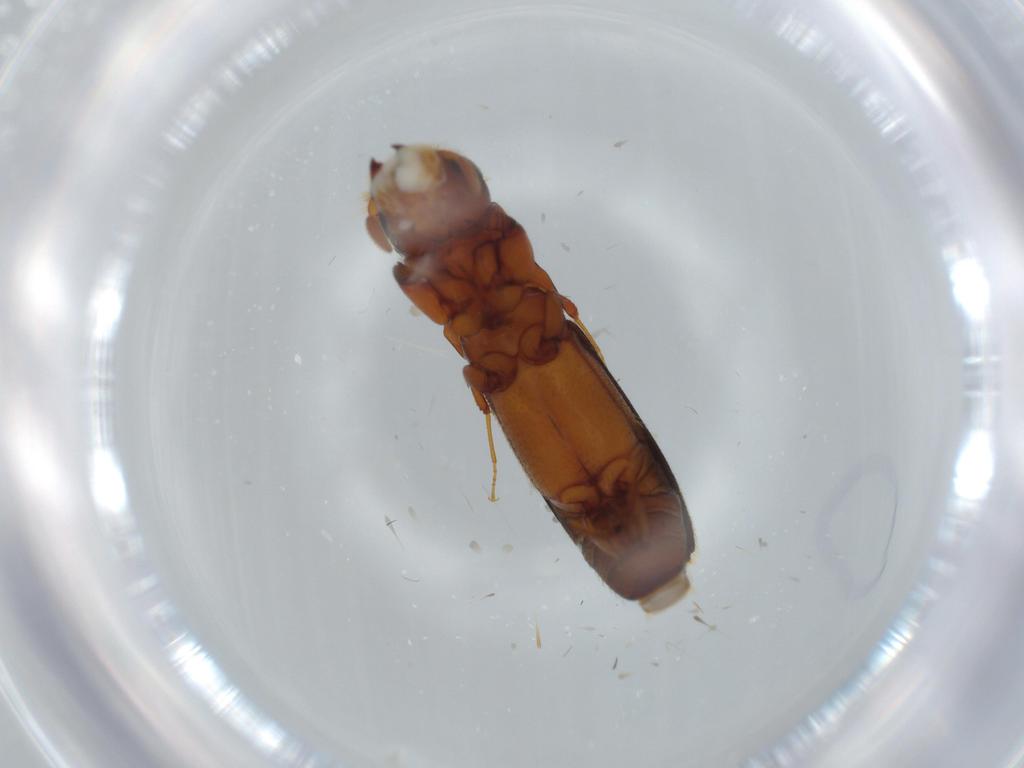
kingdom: Animalia
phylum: Arthropoda
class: Insecta
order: Coleoptera
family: Curculionidae
